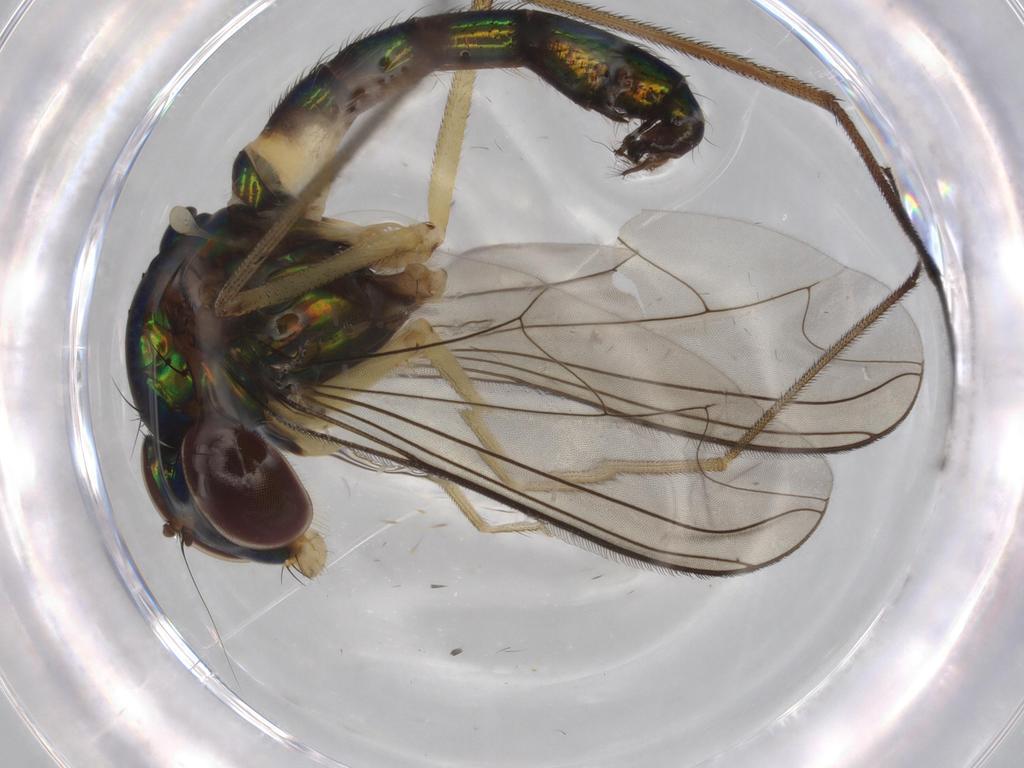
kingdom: Animalia
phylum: Arthropoda
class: Insecta
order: Diptera
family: Dolichopodidae
